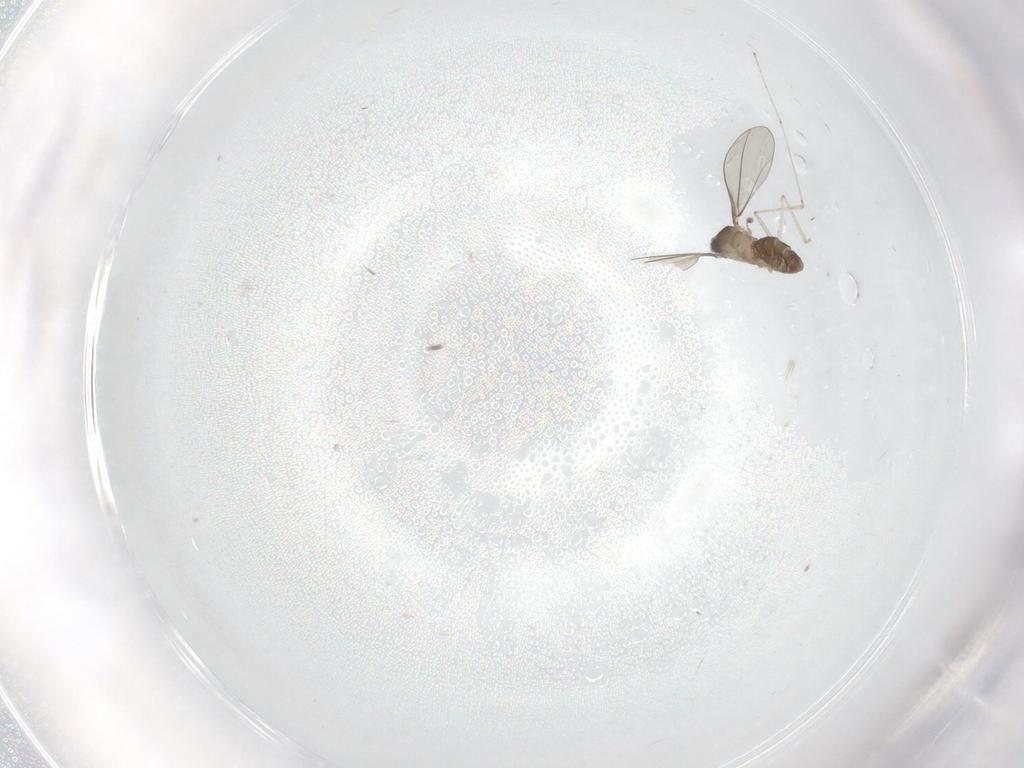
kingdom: Animalia
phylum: Arthropoda
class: Insecta
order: Diptera
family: Cecidomyiidae
